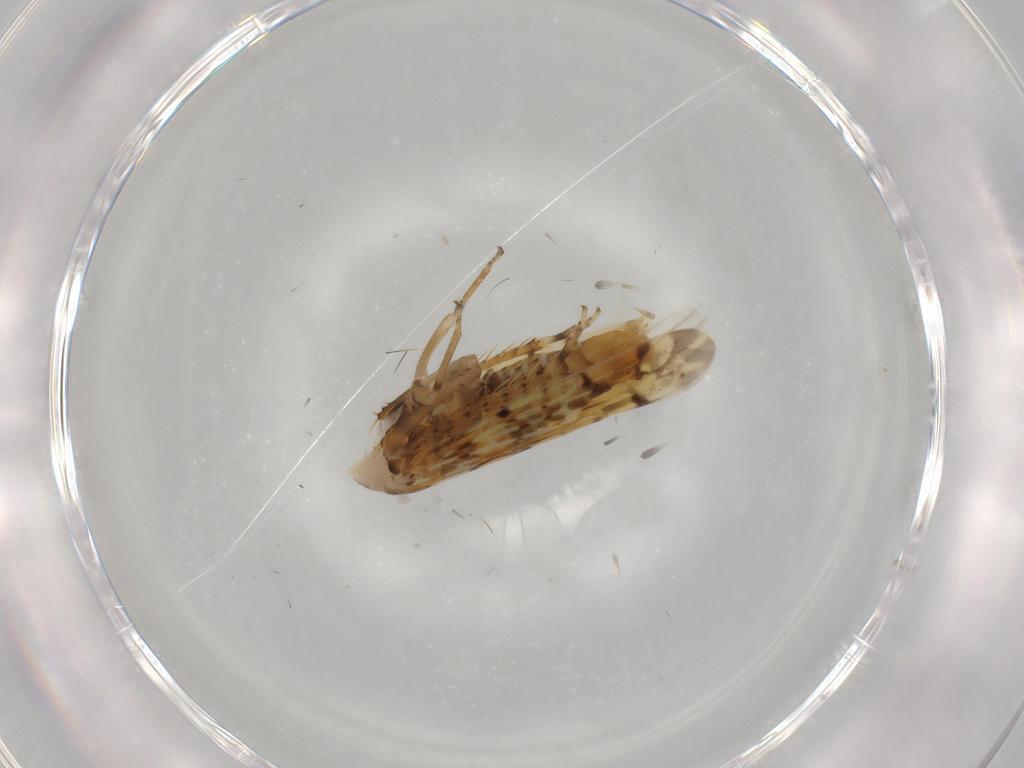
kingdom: Animalia
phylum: Arthropoda
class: Insecta
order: Hemiptera
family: Cicadellidae
